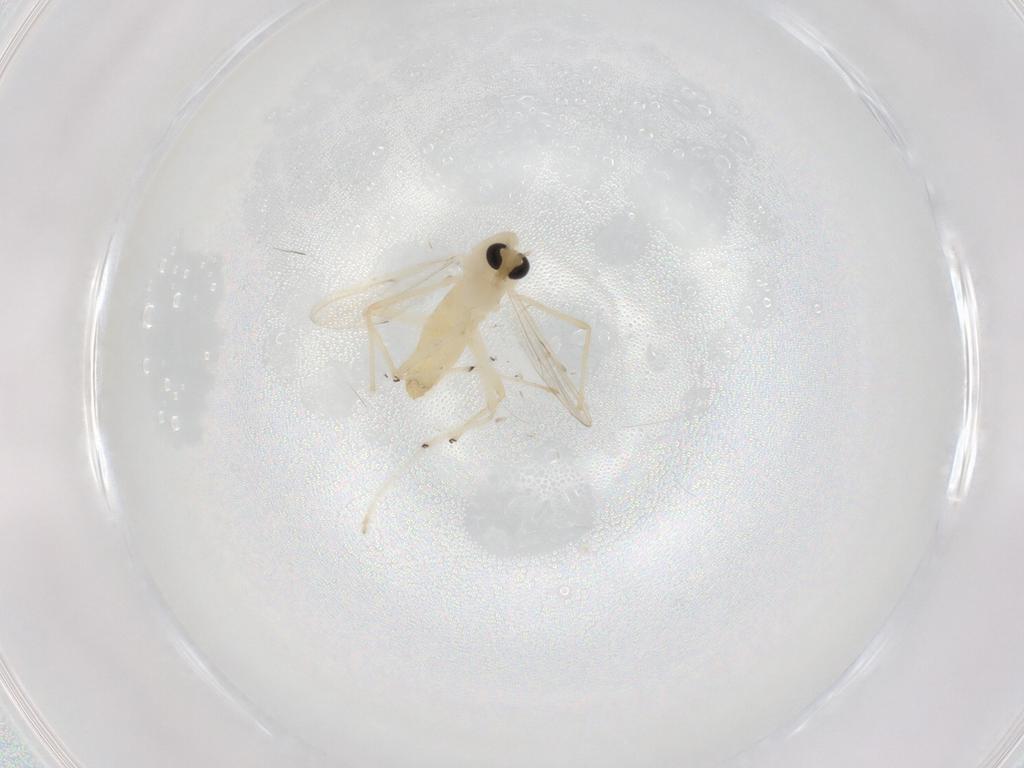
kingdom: Animalia
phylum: Arthropoda
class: Insecta
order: Diptera
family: Chironomidae
